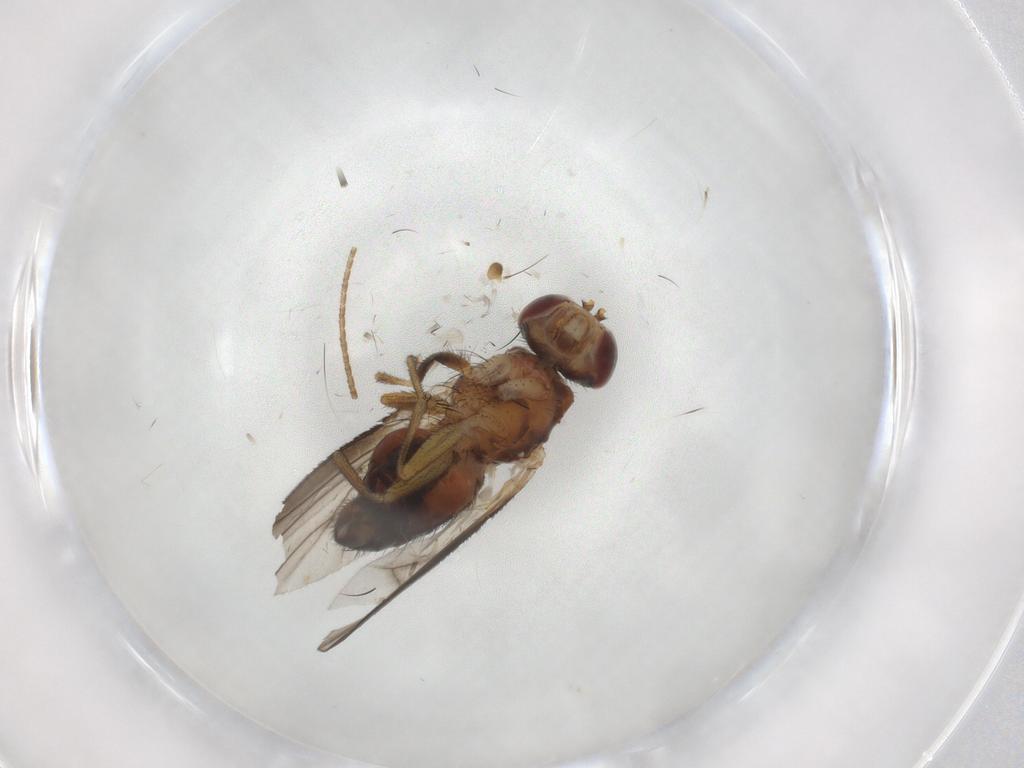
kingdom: Animalia
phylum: Arthropoda
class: Insecta
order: Diptera
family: Heleomyzidae
